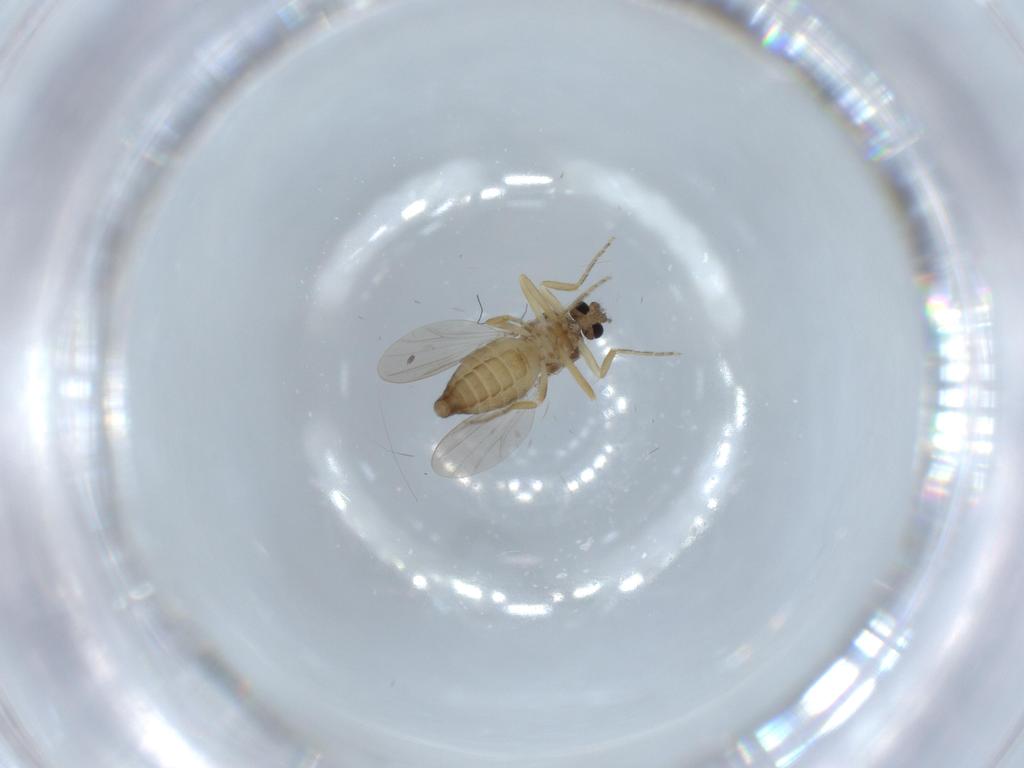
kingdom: Animalia
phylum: Arthropoda
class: Insecta
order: Diptera
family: Ceratopogonidae
